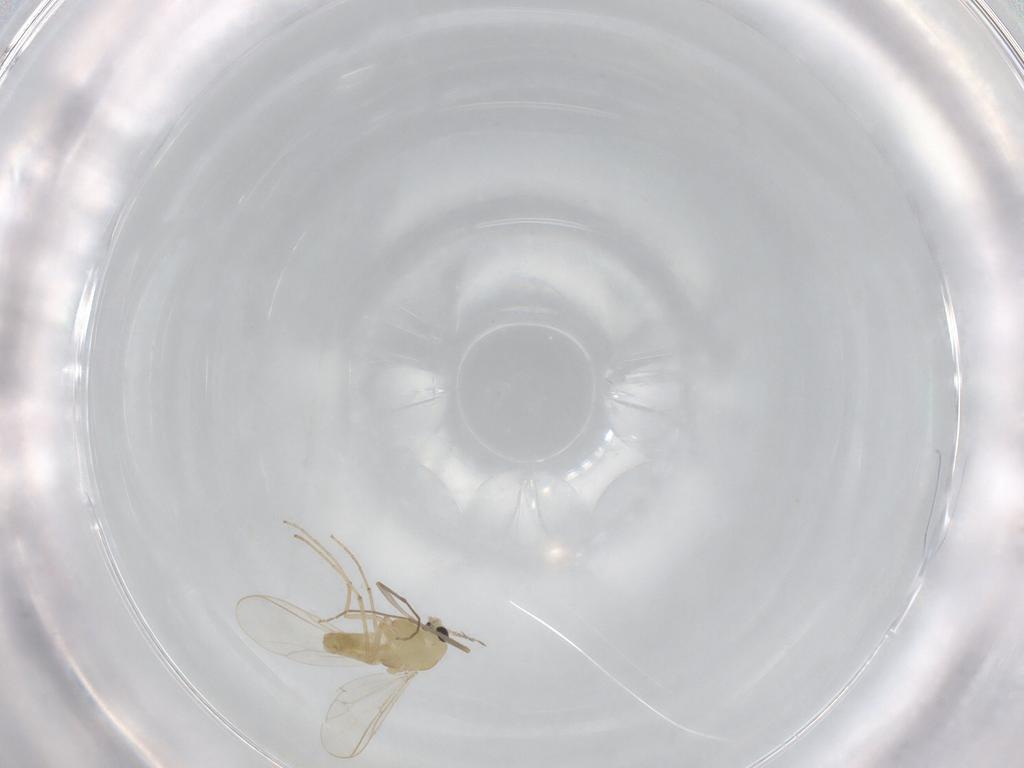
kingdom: Animalia
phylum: Arthropoda
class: Insecta
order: Diptera
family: Chironomidae
